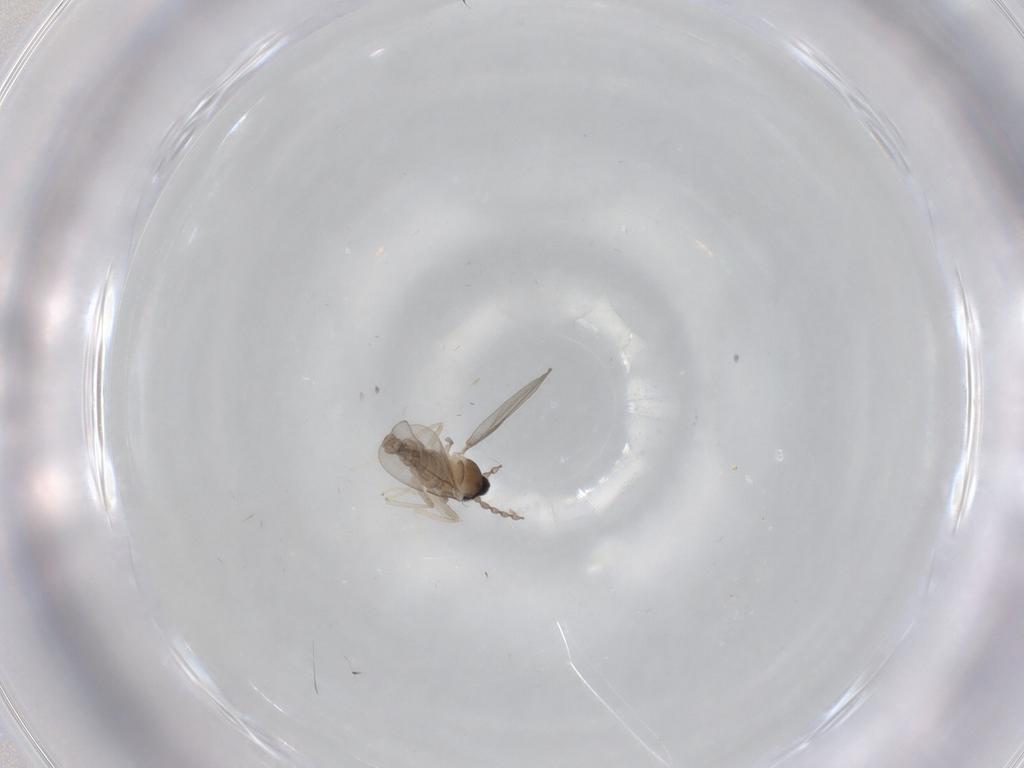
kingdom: Animalia
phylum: Arthropoda
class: Insecta
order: Diptera
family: Cecidomyiidae
